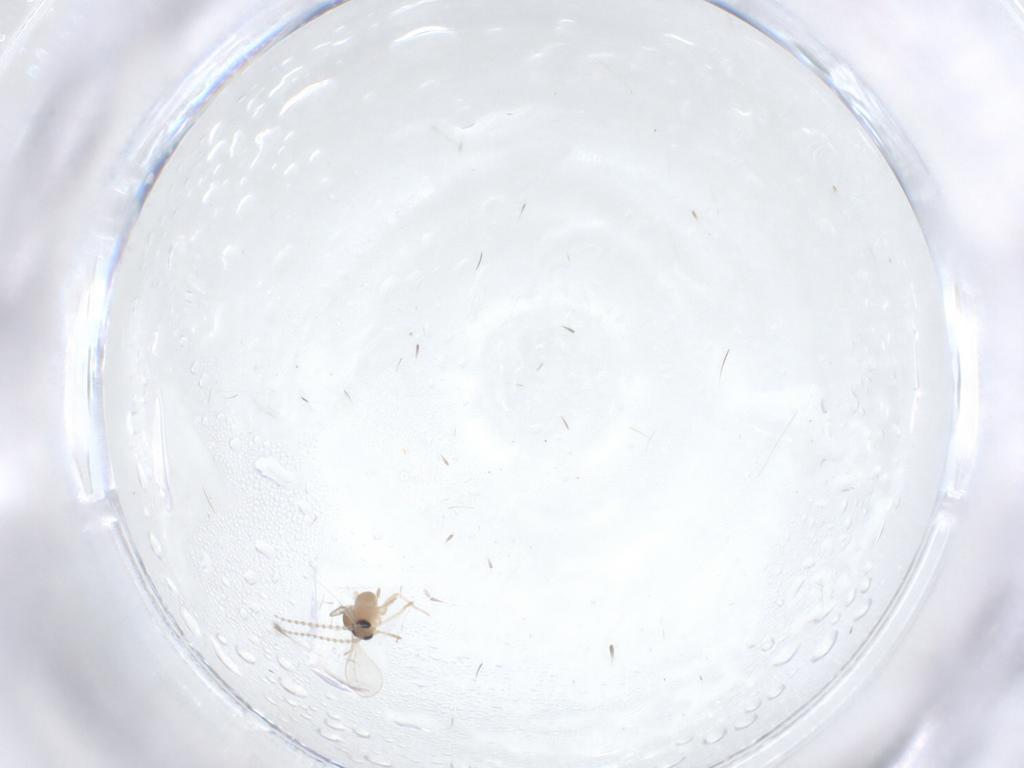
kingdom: Animalia
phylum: Arthropoda
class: Insecta
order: Diptera
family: Cecidomyiidae
